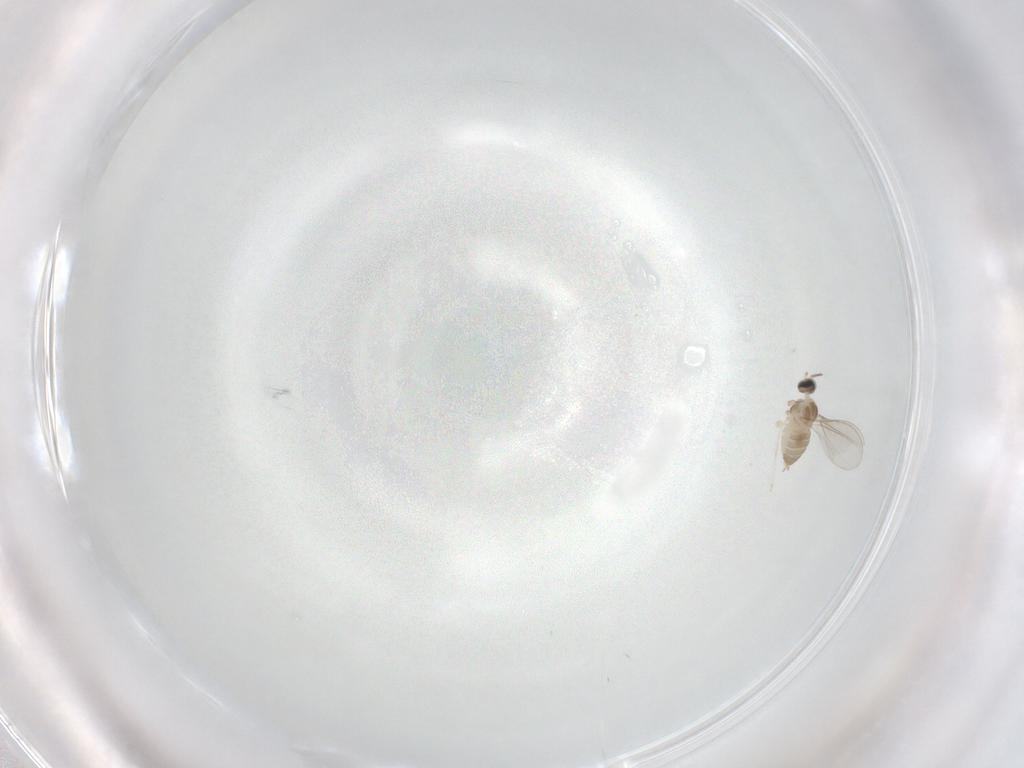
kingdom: Animalia
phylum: Arthropoda
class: Insecta
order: Diptera
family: Cecidomyiidae
